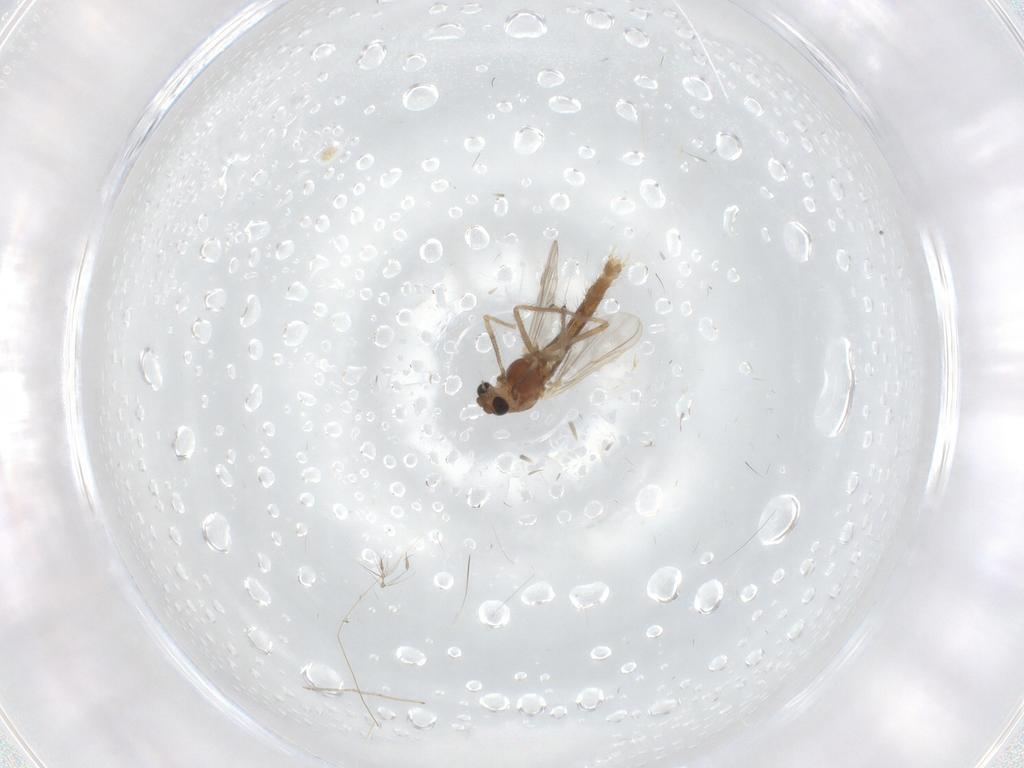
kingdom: Animalia
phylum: Arthropoda
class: Insecta
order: Diptera
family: Chironomidae
